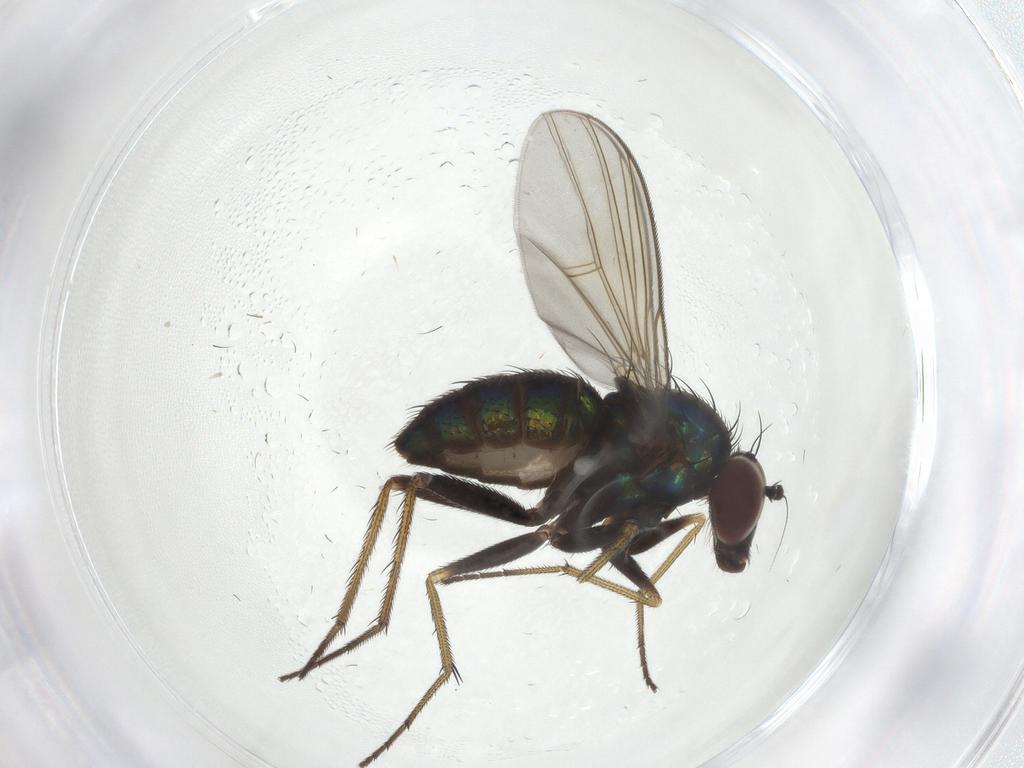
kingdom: Animalia
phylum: Arthropoda
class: Insecta
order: Diptera
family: Dolichopodidae
